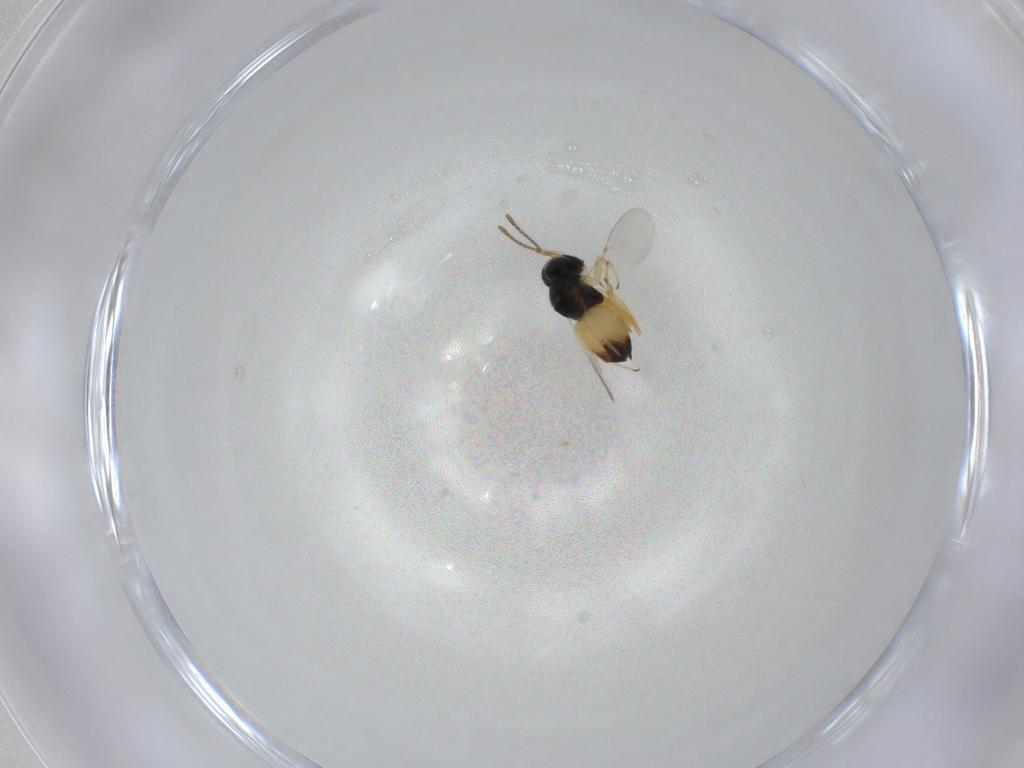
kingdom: Animalia
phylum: Arthropoda
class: Insecta
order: Hymenoptera
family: Encyrtidae
